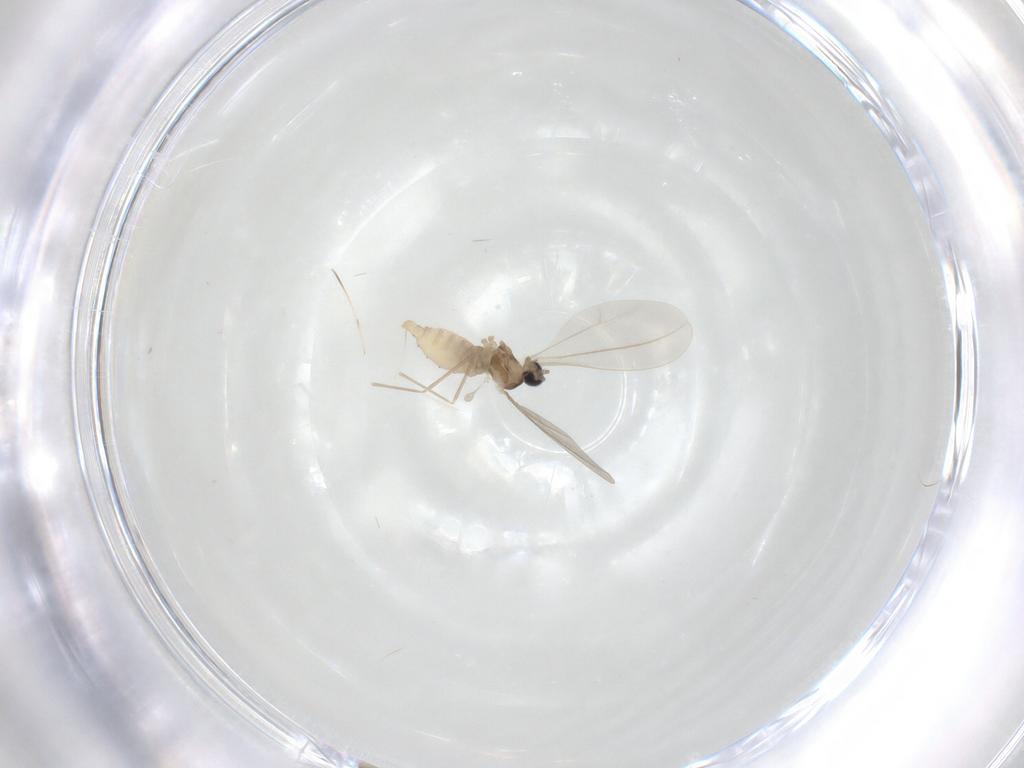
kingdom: Animalia
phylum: Arthropoda
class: Insecta
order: Diptera
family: Cecidomyiidae
